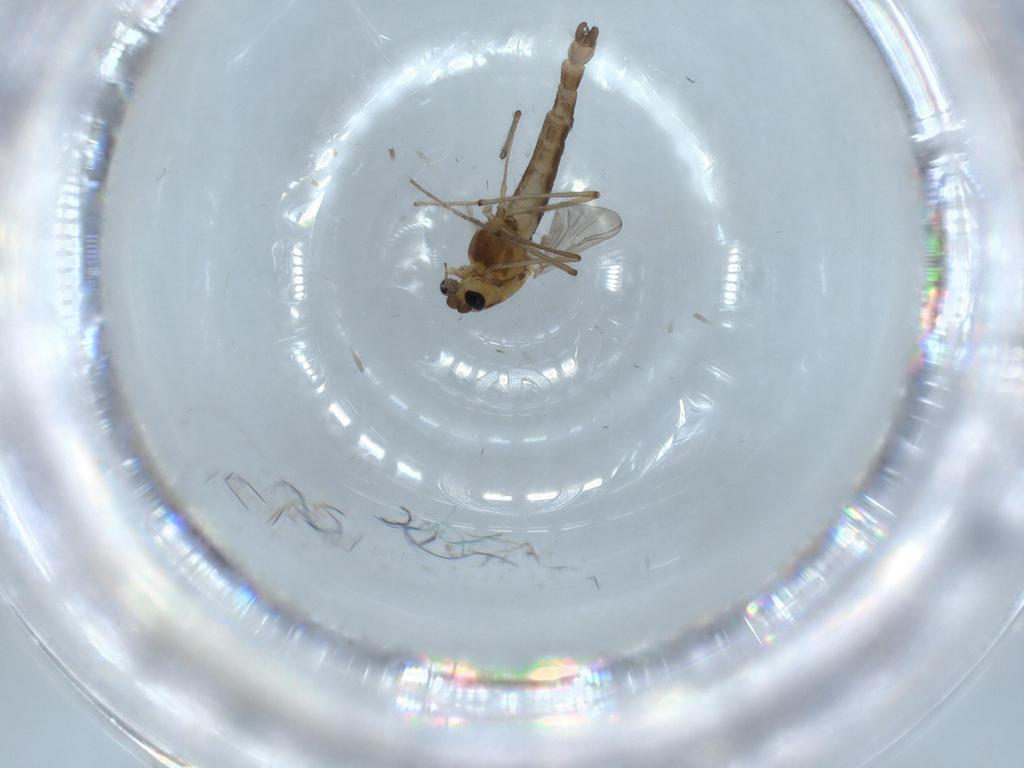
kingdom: Animalia
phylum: Arthropoda
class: Insecta
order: Diptera
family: Chironomidae
